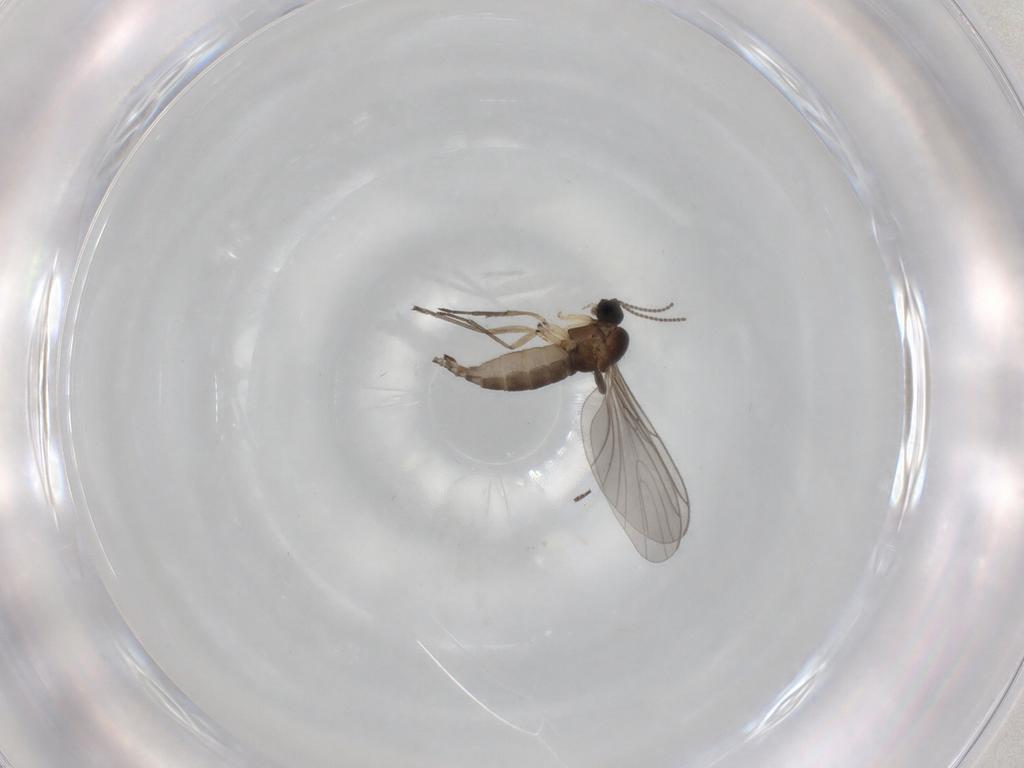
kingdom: Animalia
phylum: Arthropoda
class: Insecta
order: Diptera
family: Sciaridae
